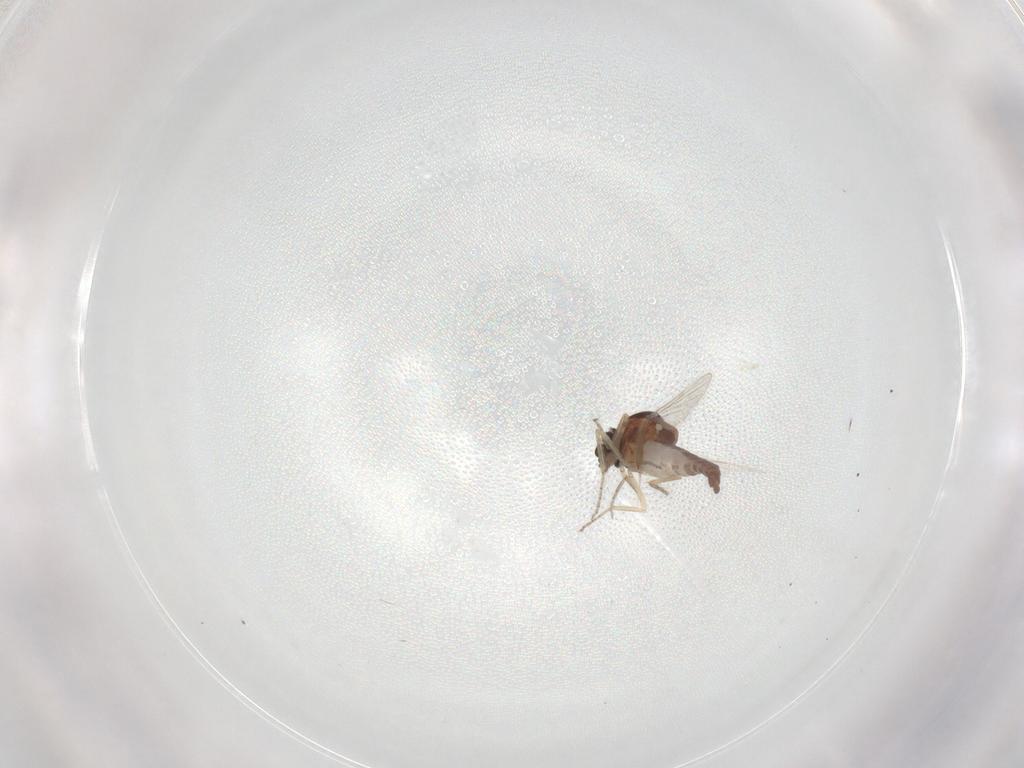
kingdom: Animalia
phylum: Arthropoda
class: Insecta
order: Diptera
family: Ceratopogonidae
